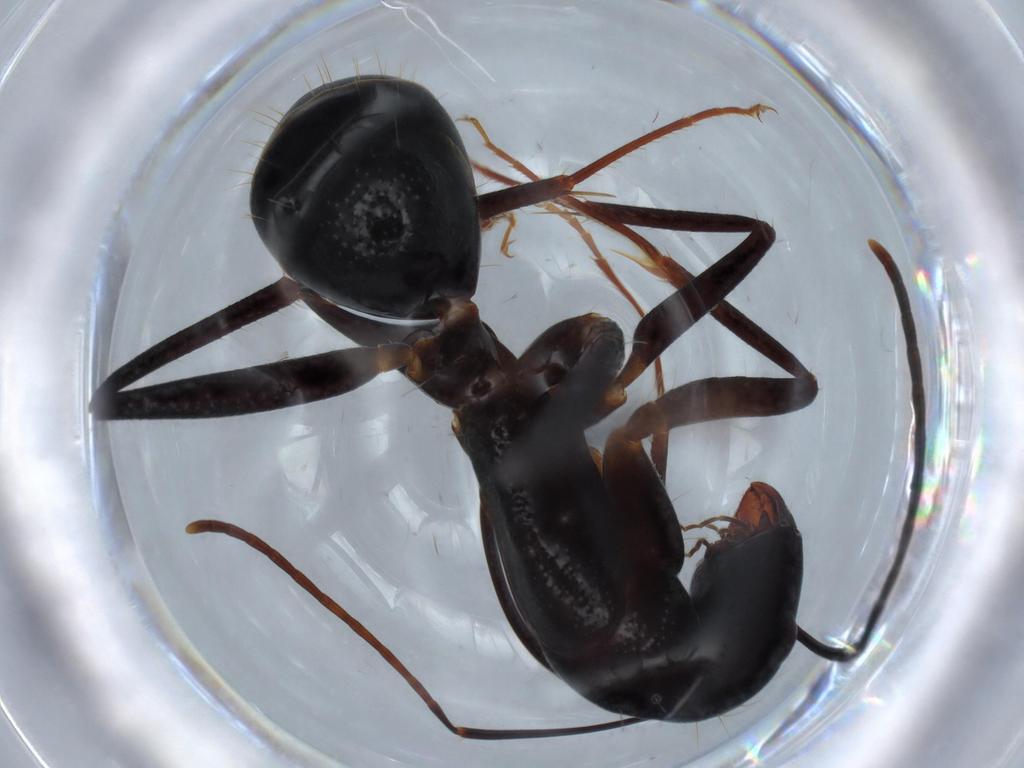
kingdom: Animalia
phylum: Arthropoda
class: Insecta
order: Hymenoptera
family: Formicidae
